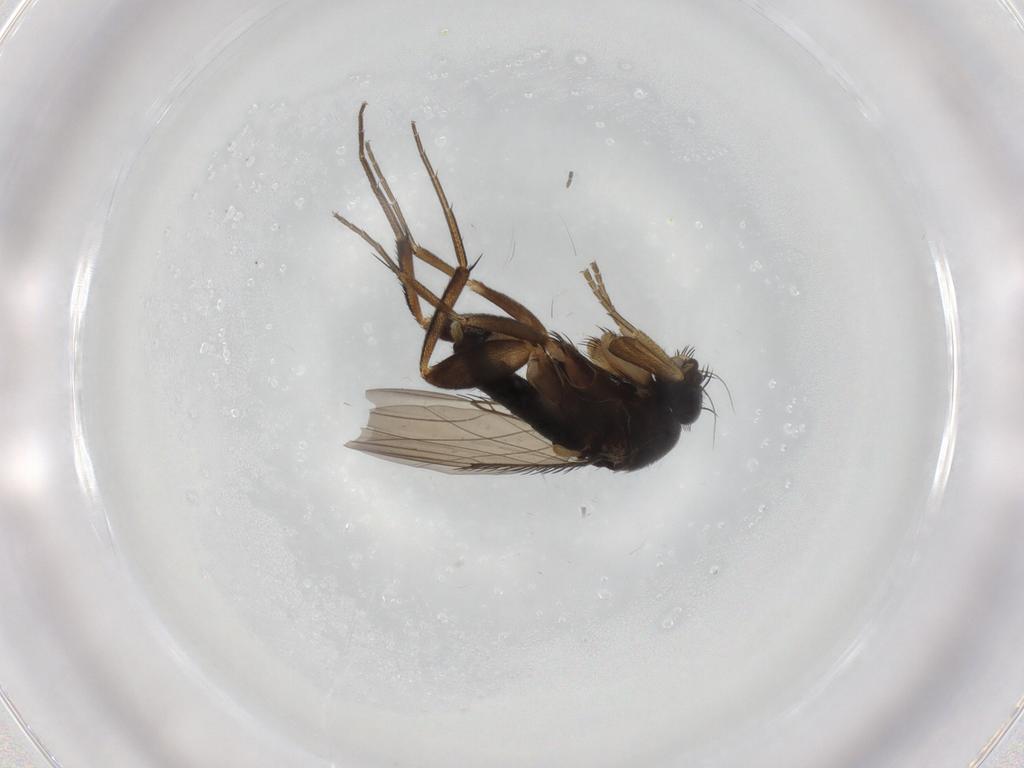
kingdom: Animalia
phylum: Arthropoda
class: Insecta
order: Diptera
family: Phoridae
